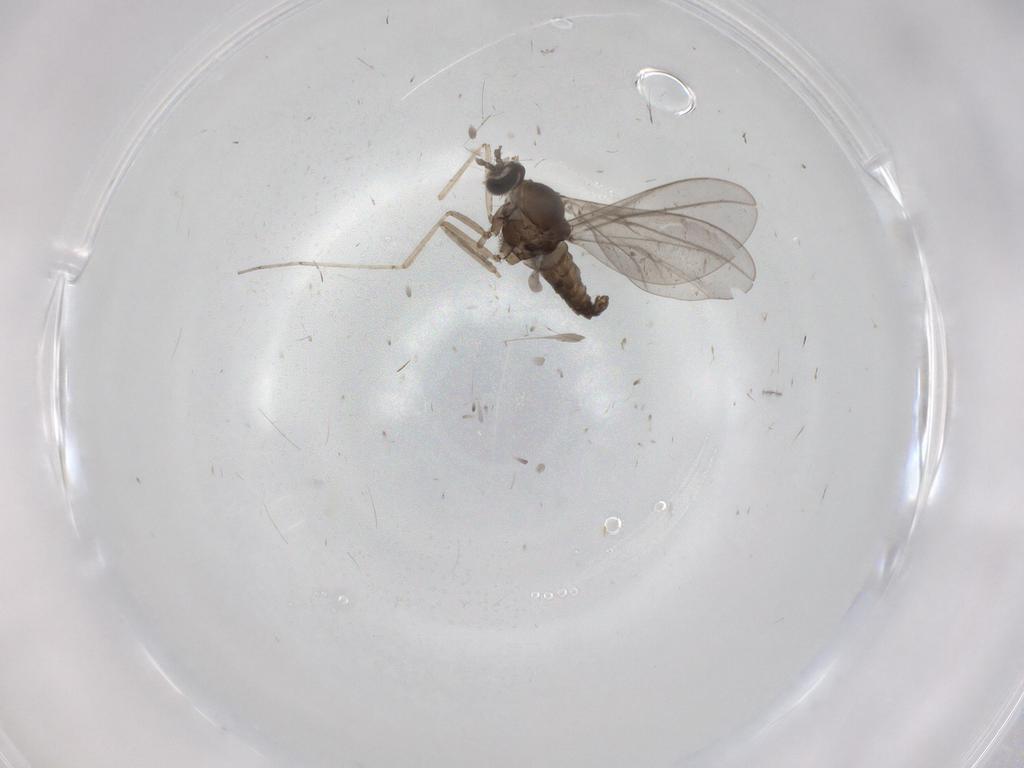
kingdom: Animalia
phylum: Arthropoda
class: Insecta
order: Diptera
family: Cecidomyiidae
